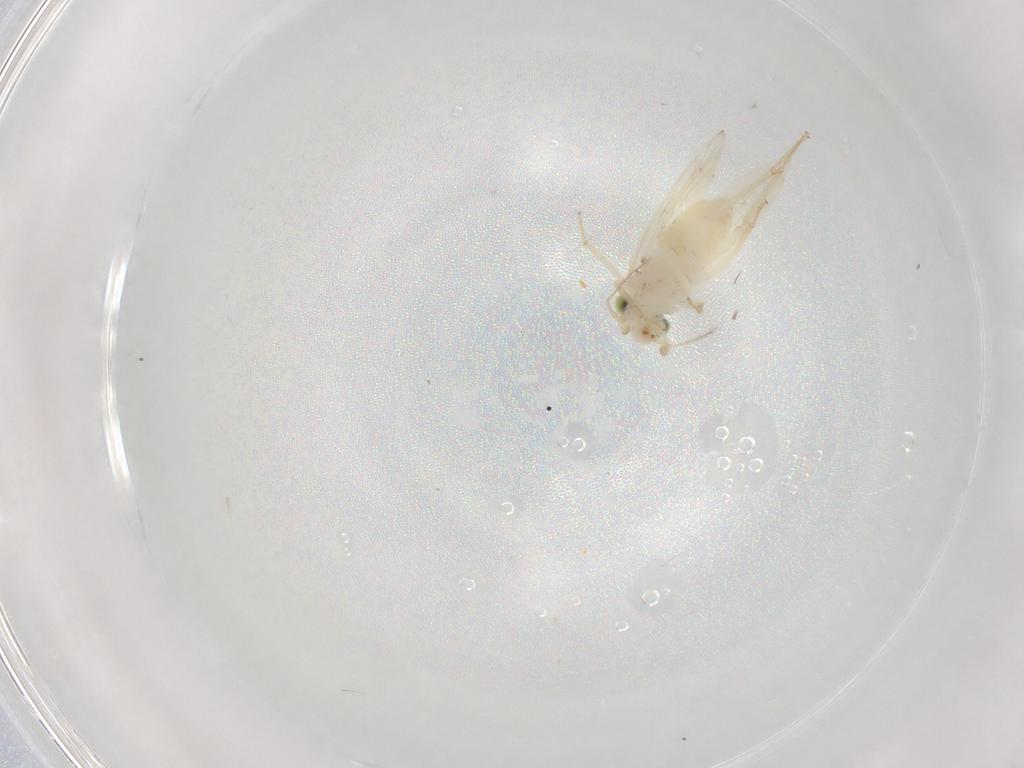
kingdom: Animalia
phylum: Arthropoda
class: Insecta
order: Psocodea
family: Lepidopsocidae
